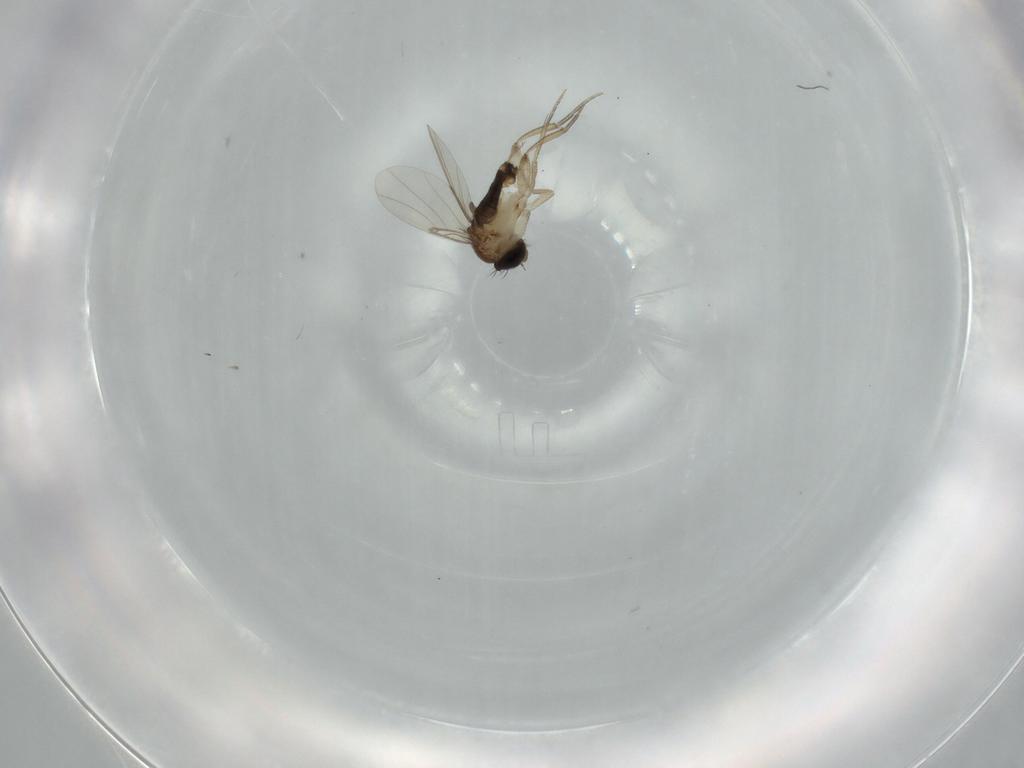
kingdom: Animalia
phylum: Arthropoda
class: Insecta
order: Diptera
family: Phoridae
